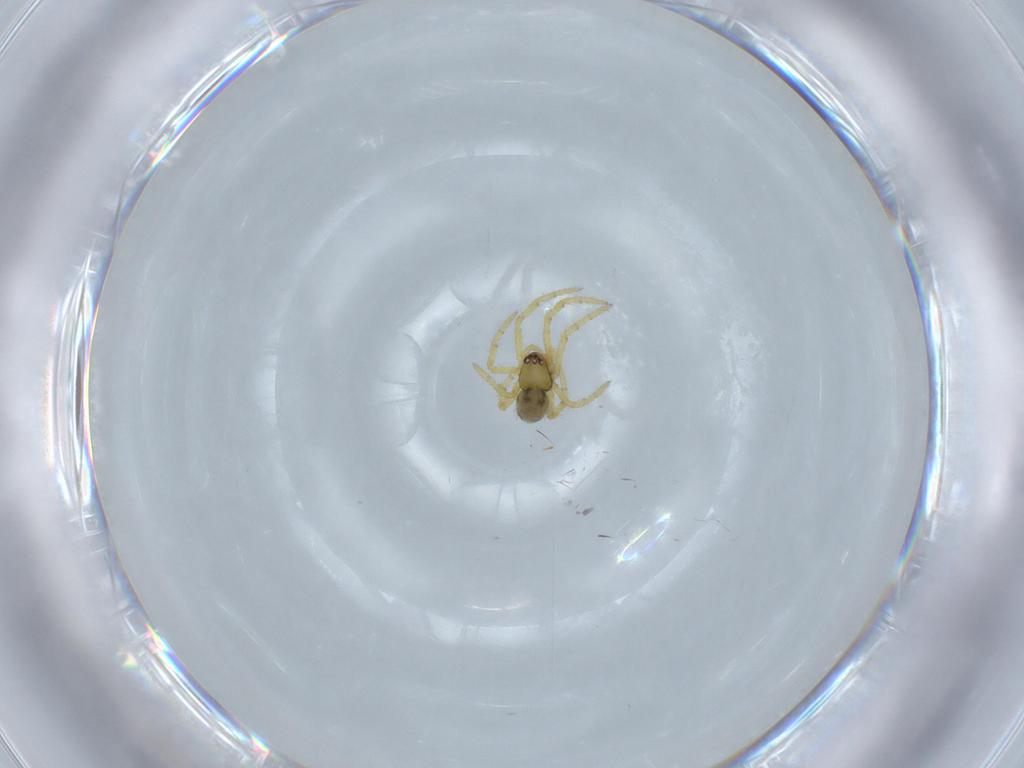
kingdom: Animalia
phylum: Arthropoda
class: Arachnida
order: Araneae
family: Theridiidae
